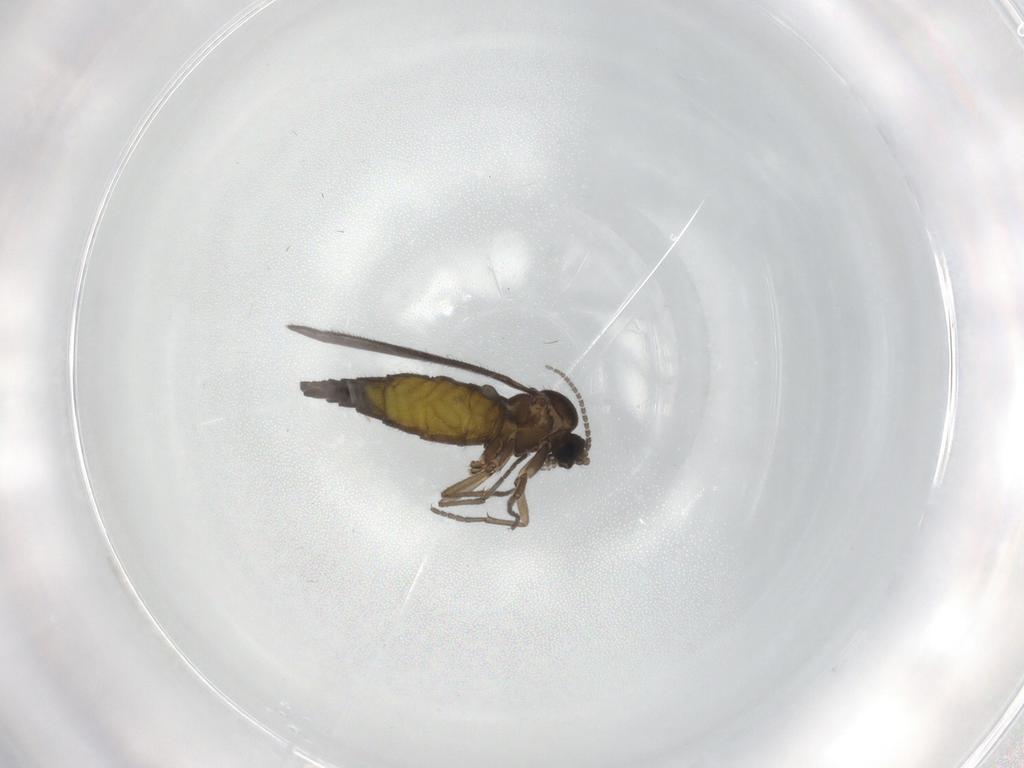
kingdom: Animalia
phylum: Arthropoda
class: Insecta
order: Diptera
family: Sciaridae
